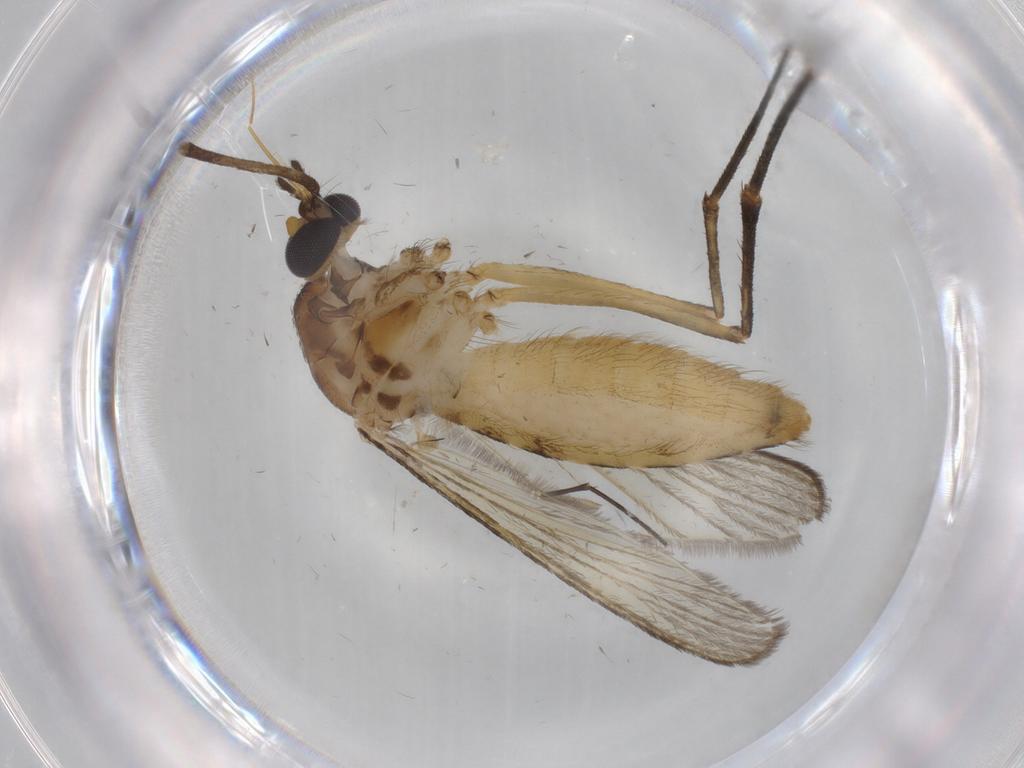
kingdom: Animalia
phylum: Arthropoda
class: Insecta
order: Diptera
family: Culicidae
